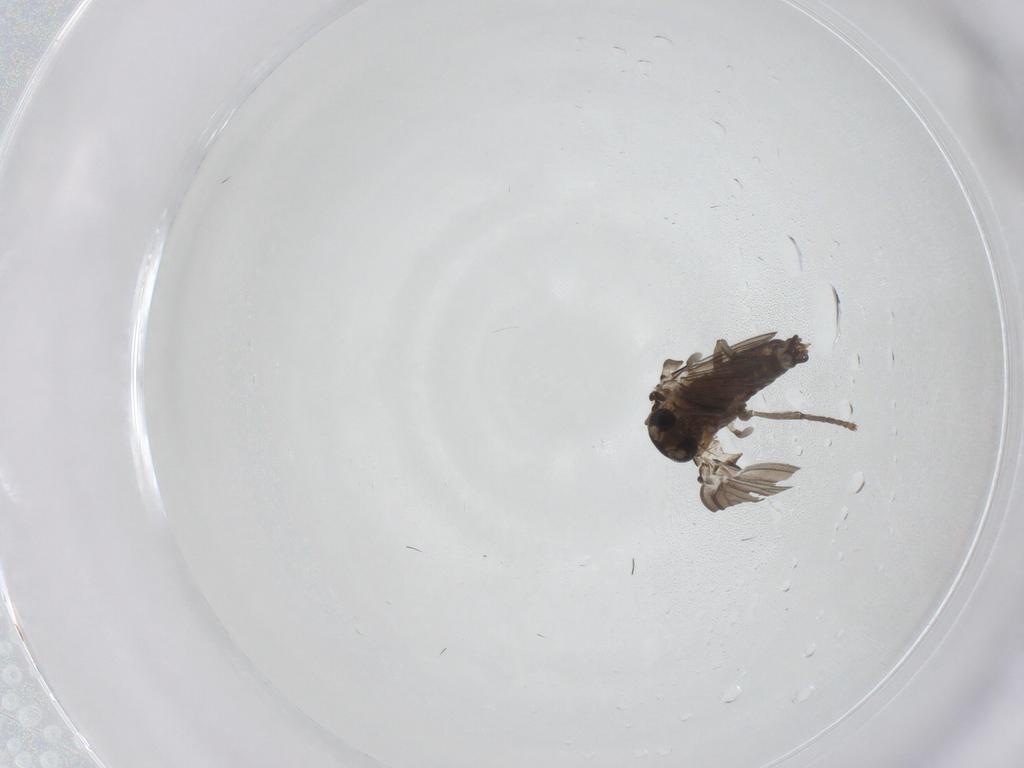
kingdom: Animalia
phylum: Arthropoda
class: Insecta
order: Diptera
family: Psychodidae
